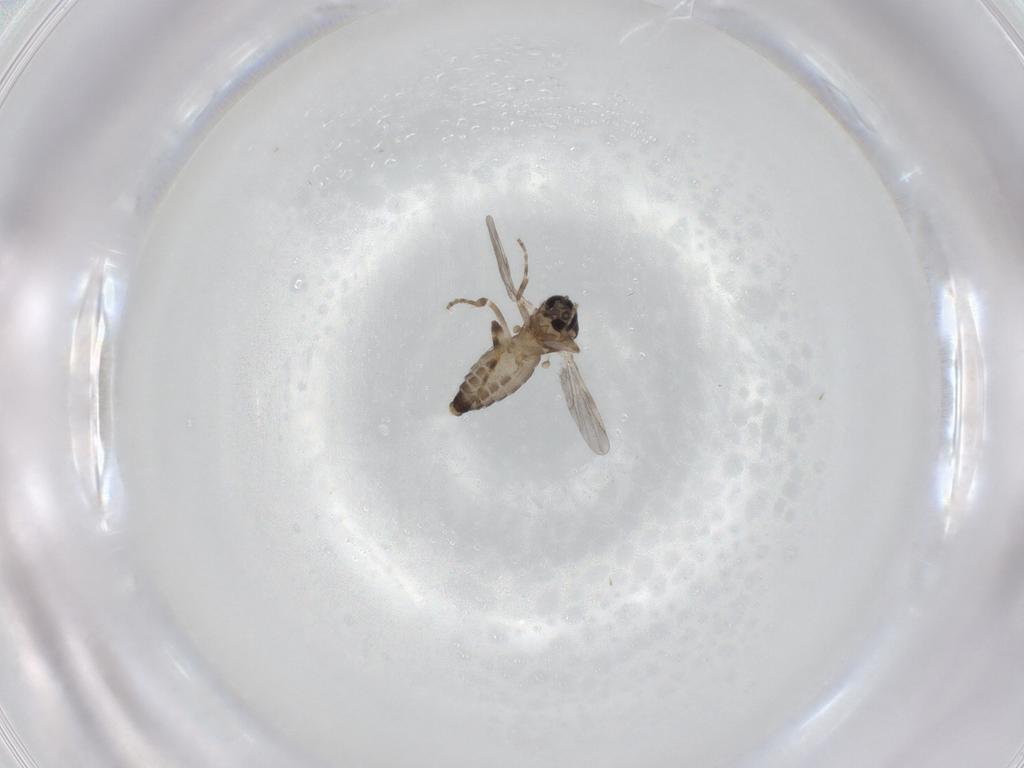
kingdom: Animalia
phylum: Arthropoda
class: Insecta
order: Diptera
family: Ceratopogonidae
